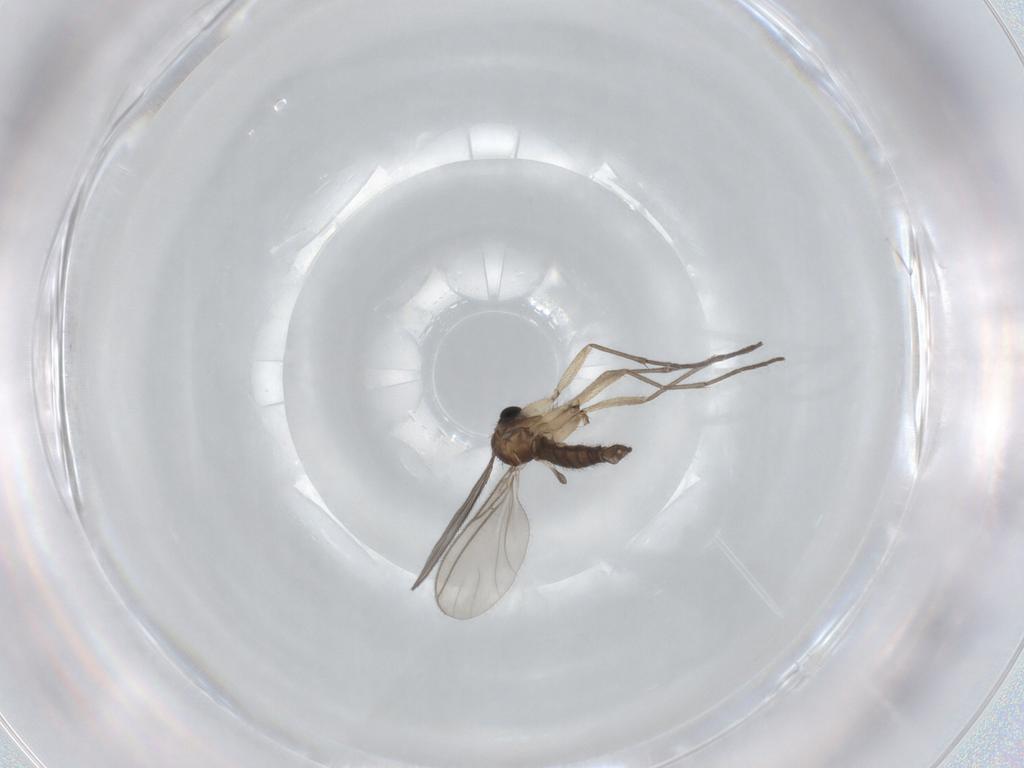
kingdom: Animalia
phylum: Arthropoda
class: Insecta
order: Diptera
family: Sciaridae
